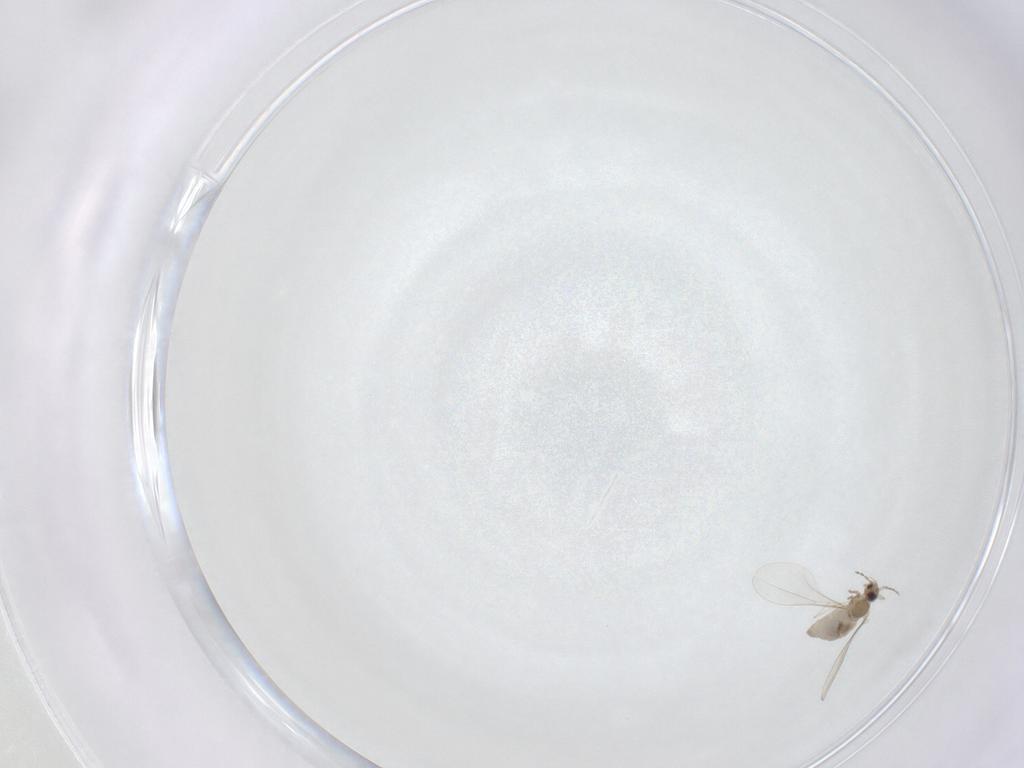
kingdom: Animalia
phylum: Arthropoda
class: Insecta
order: Diptera
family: Cecidomyiidae
